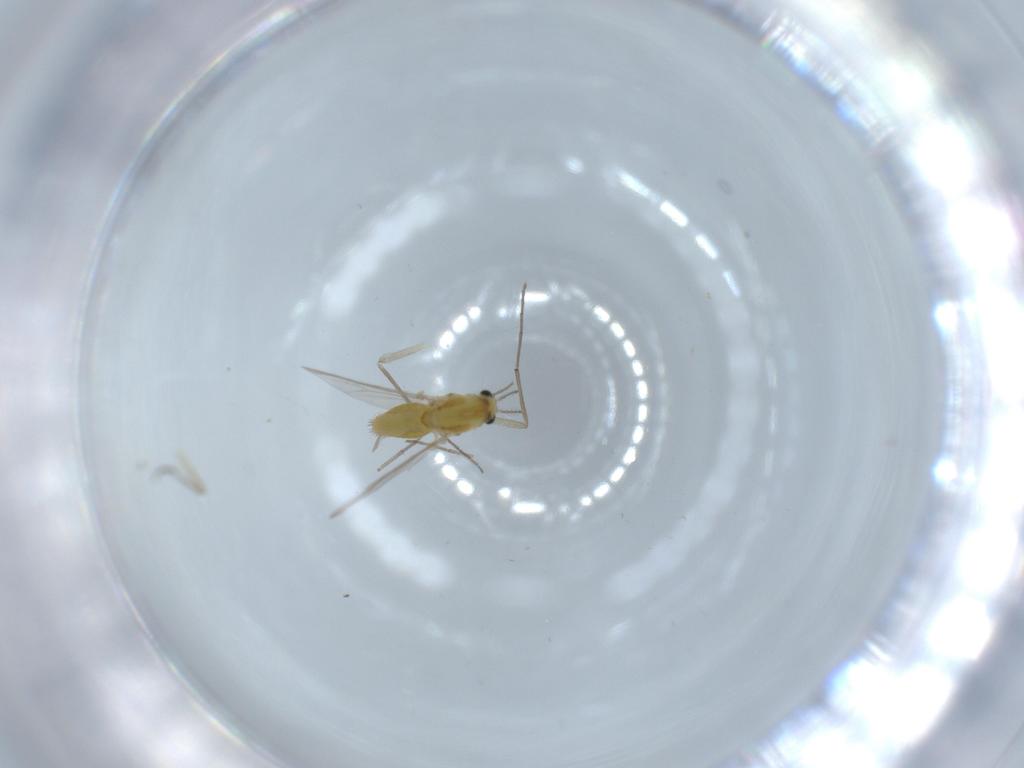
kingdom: Animalia
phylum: Arthropoda
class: Insecta
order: Diptera
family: Chironomidae
